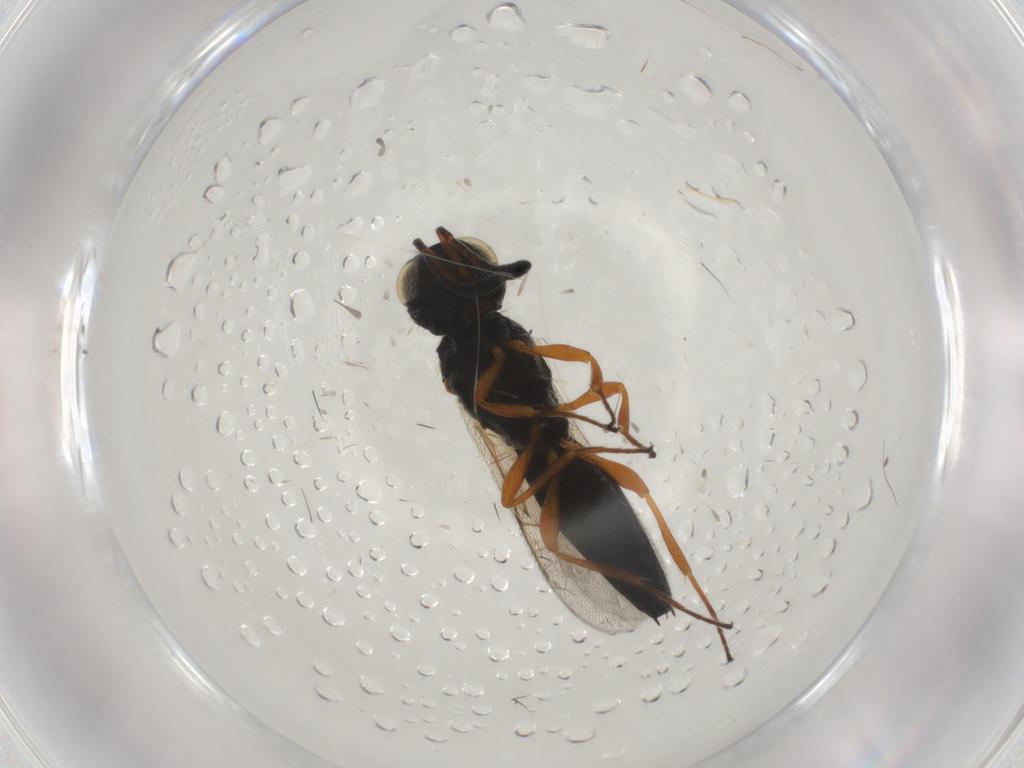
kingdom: Animalia
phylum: Arthropoda
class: Insecta
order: Hymenoptera
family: Scelionidae
